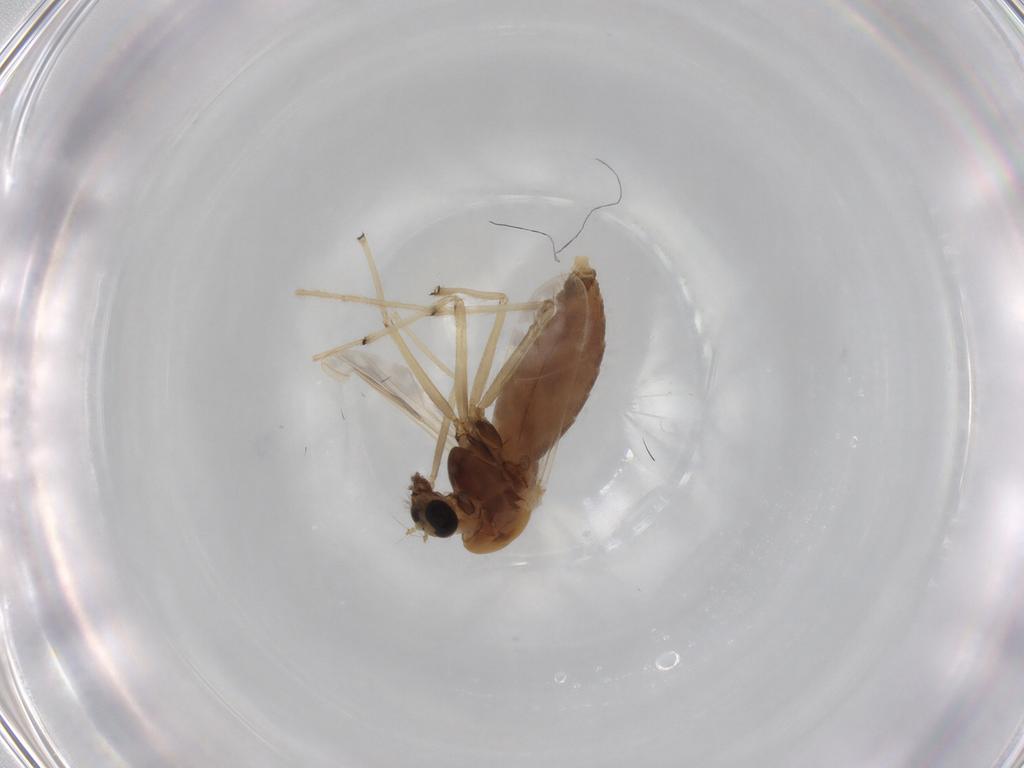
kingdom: Animalia
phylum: Arthropoda
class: Insecta
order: Diptera
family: Chironomidae
